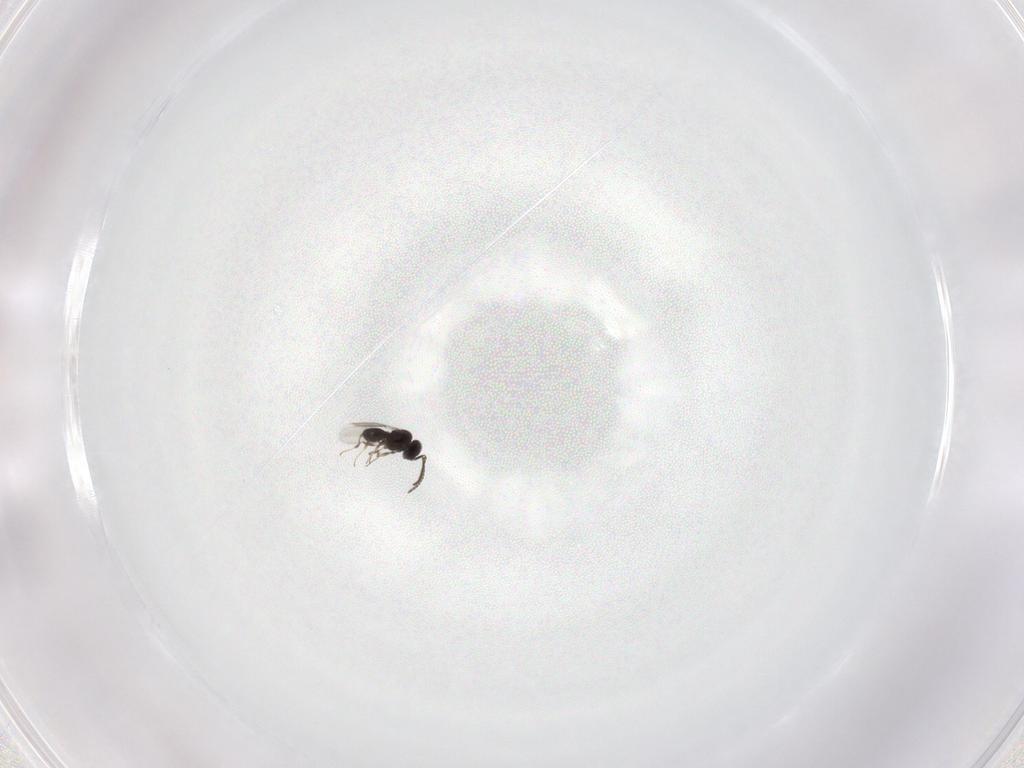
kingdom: Animalia
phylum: Arthropoda
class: Insecta
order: Hymenoptera
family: Scelionidae
